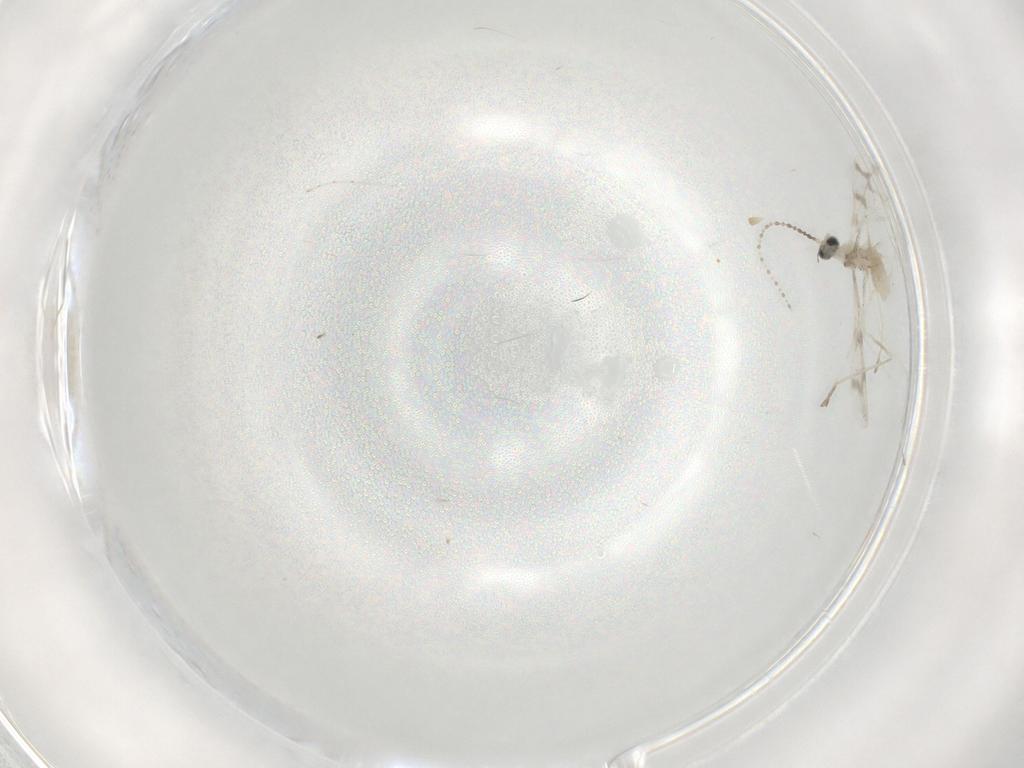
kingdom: Animalia
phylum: Arthropoda
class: Insecta
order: Diptera
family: Cecidomyiidae
